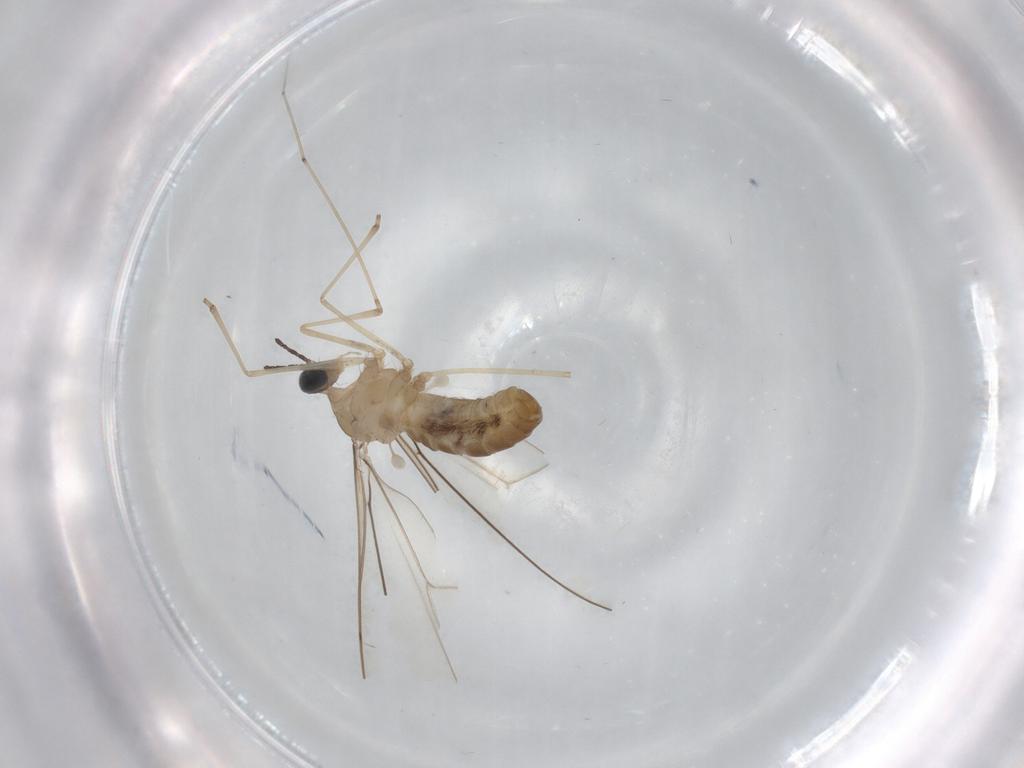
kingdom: Animalia
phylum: Arthropoda
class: Insecta
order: Diptera
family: Cecidomyiidae
